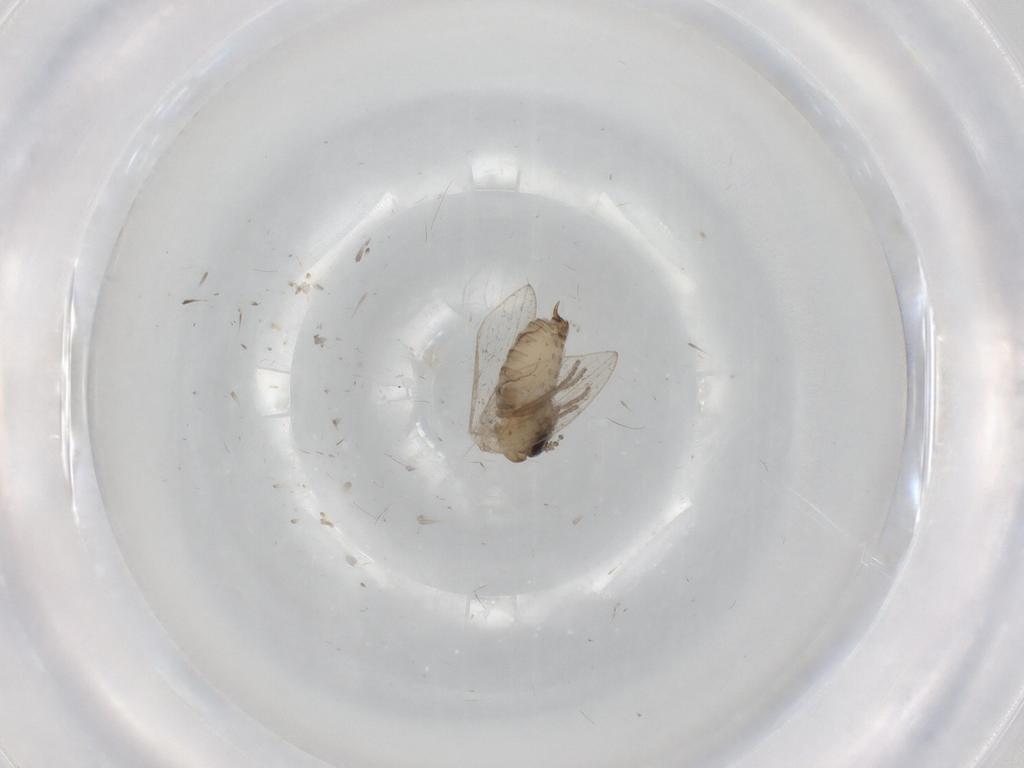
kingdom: Animalia
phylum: Arthropoda
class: Insecta
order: Diptera
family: Psychodidae
